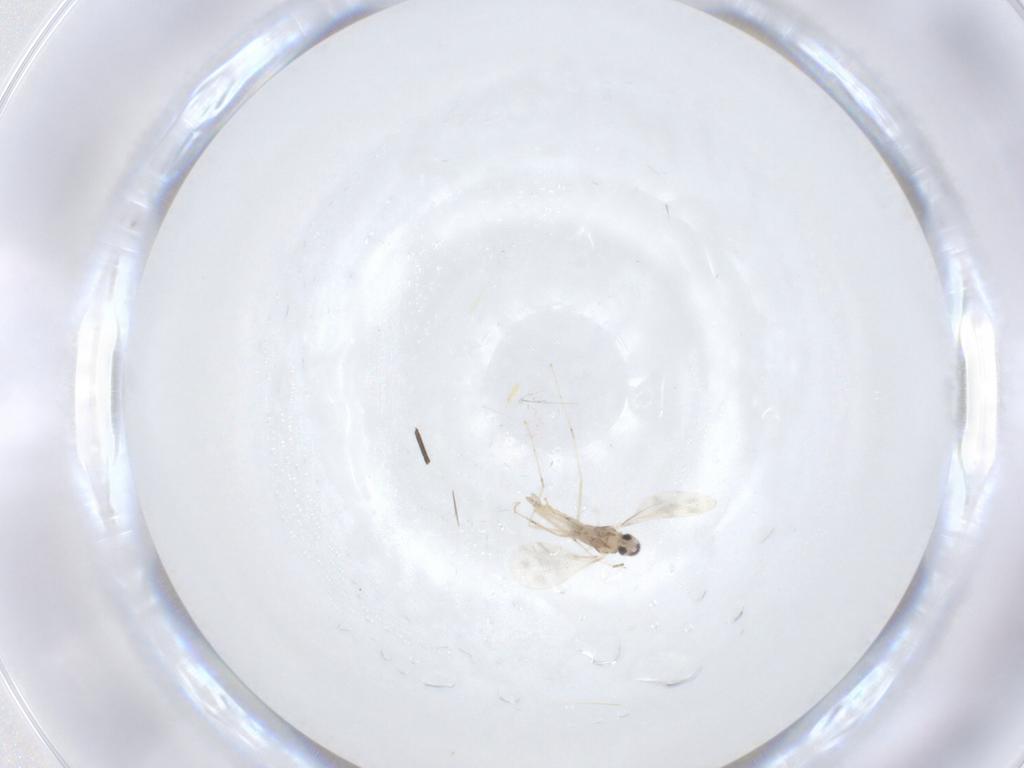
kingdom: Animalia
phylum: Arthropoda
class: Insecta
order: Diptera
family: Cecidomyiidae
